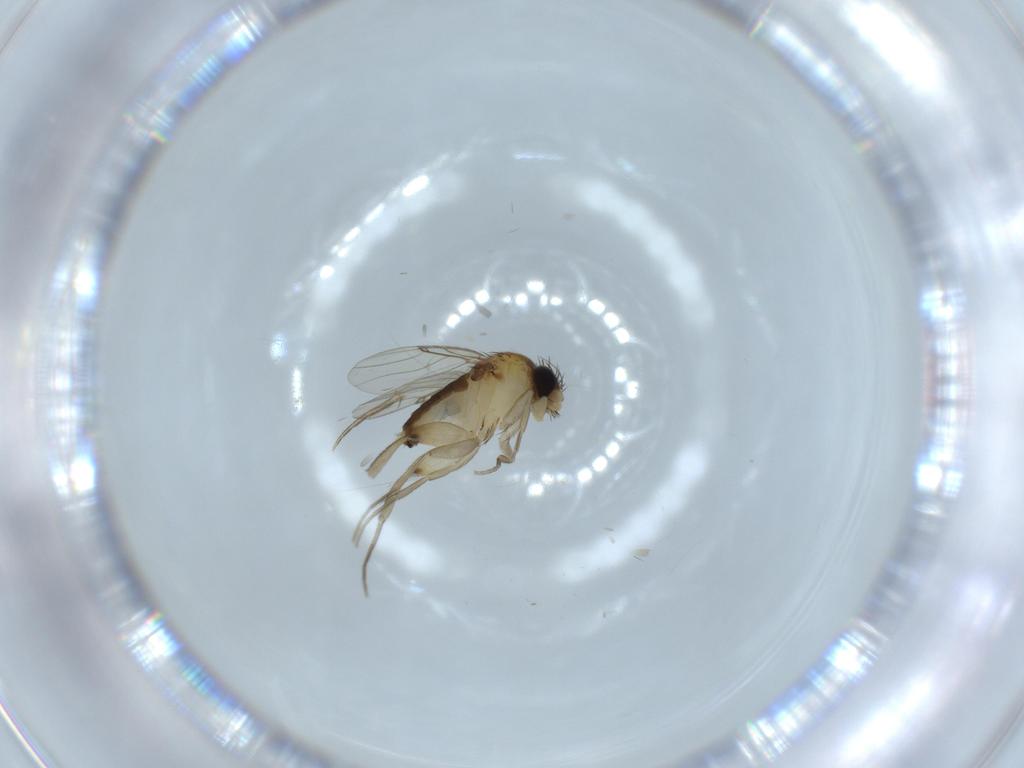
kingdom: Animalia
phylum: Arthropoda
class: Insecta
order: Diptera
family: Phoridae
